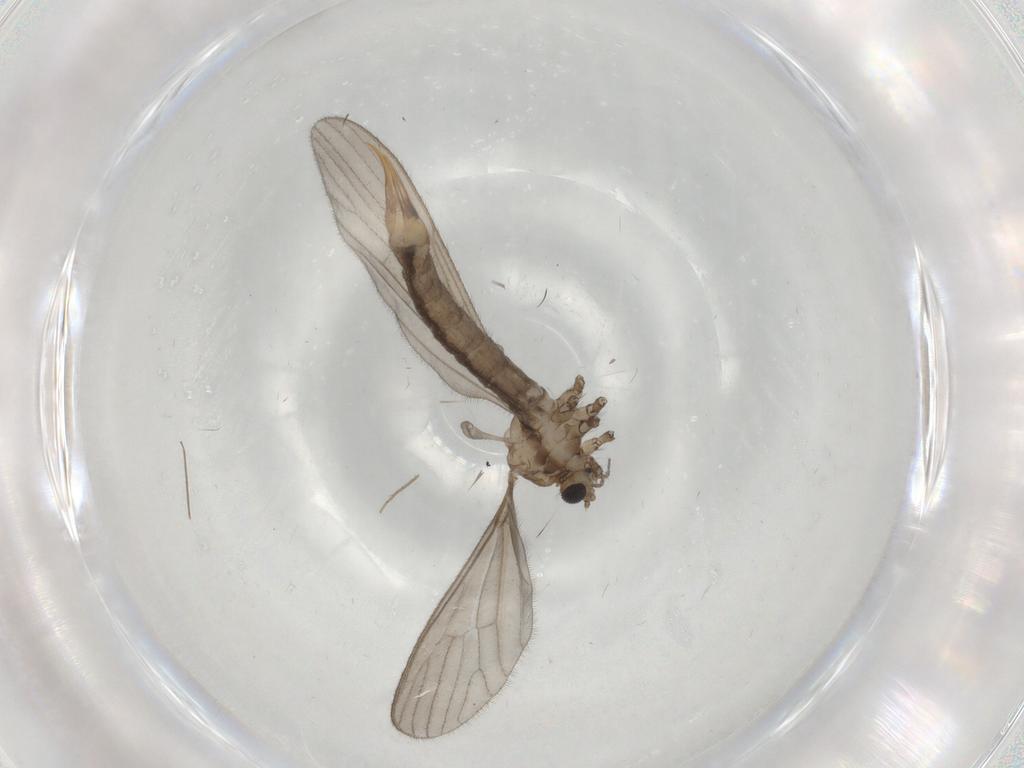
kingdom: Animalia
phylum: Arthropoda
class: Insecta
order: Diptera
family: Limoniidae
